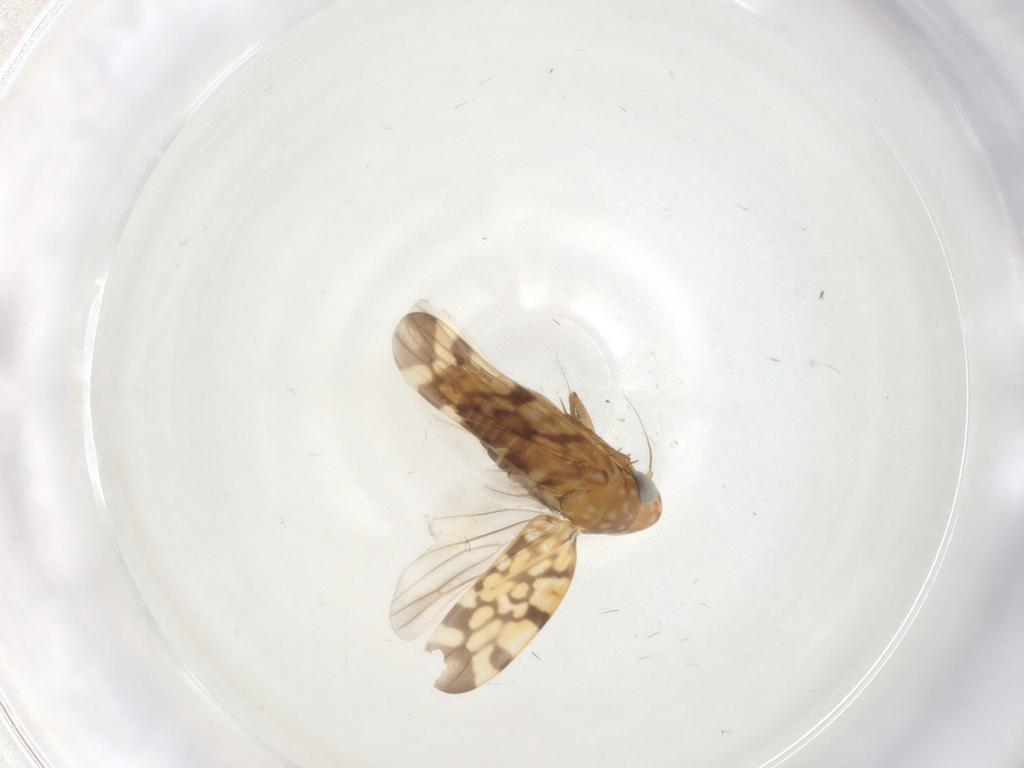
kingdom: Animalia
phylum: Arthropoda
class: Insecta
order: Hemiptera
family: Cicadellidae
